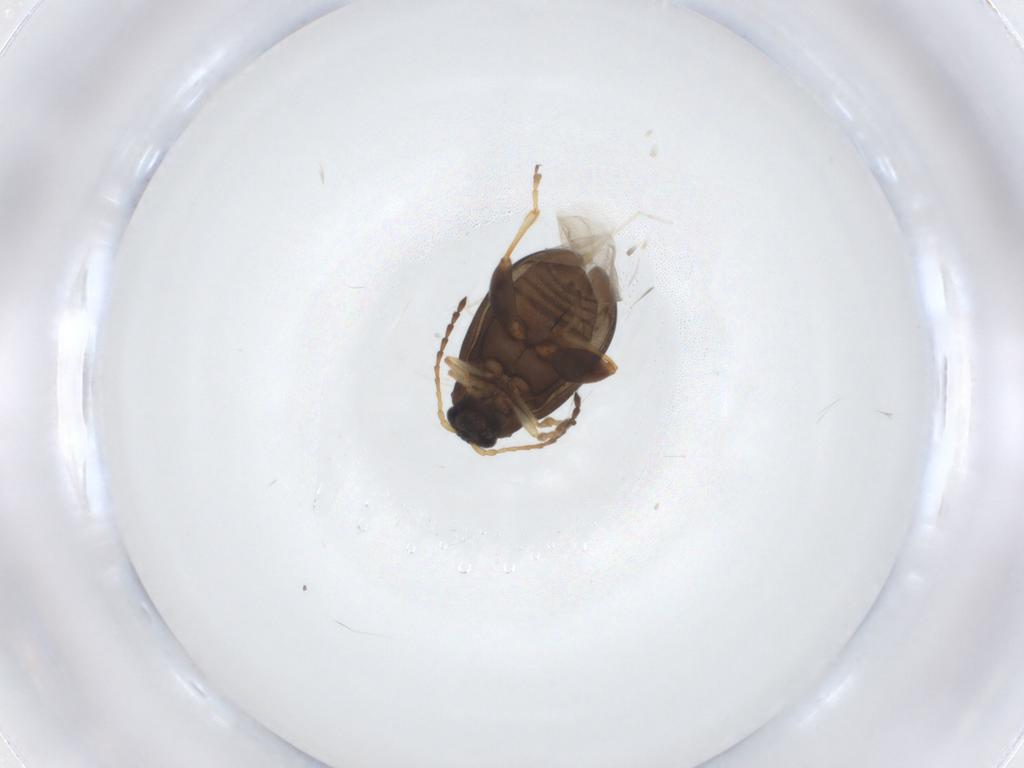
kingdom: Animalia
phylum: Arthropoda
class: Insecta
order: Coleoptera
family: Chrysomelidae
